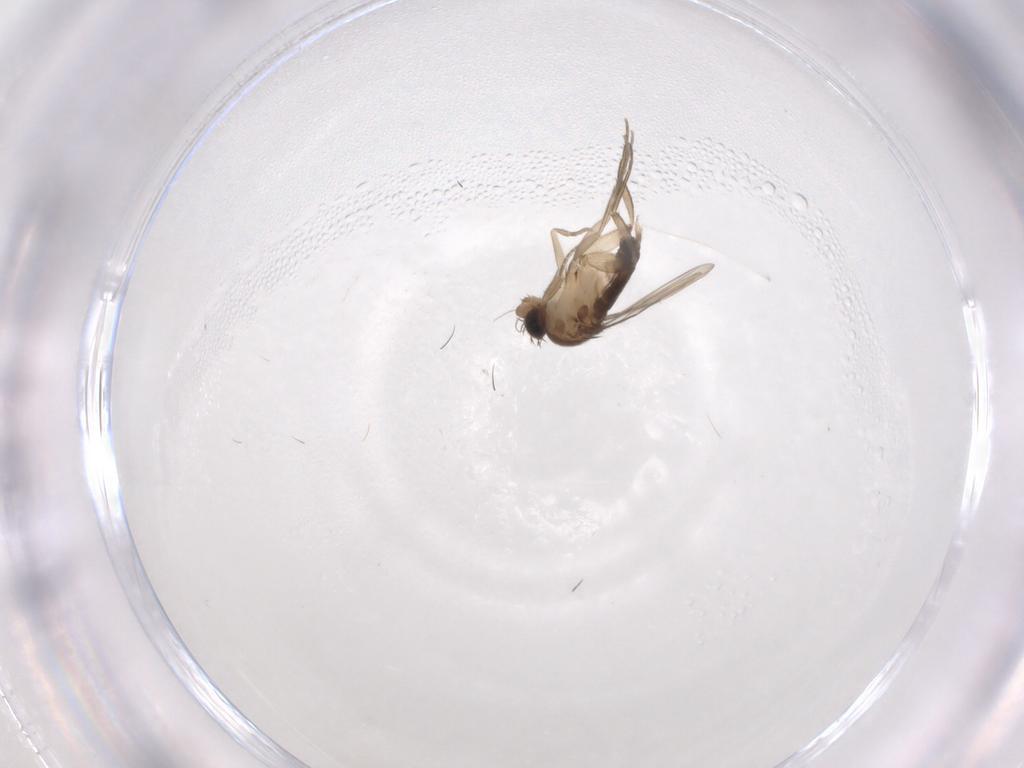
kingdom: Animalia
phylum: Arthropoda
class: Insecta
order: Diptera
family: Phoridae
